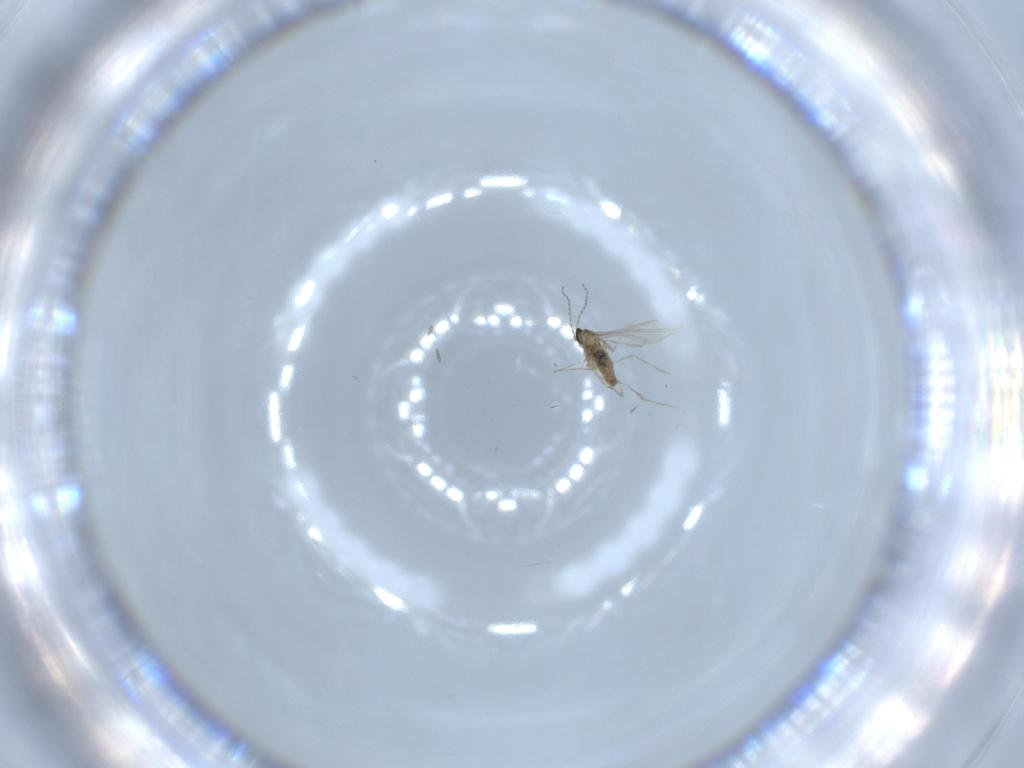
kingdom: Animalia
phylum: Arthropoda
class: Insecta
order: Diptera
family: Cecidomyiidae
